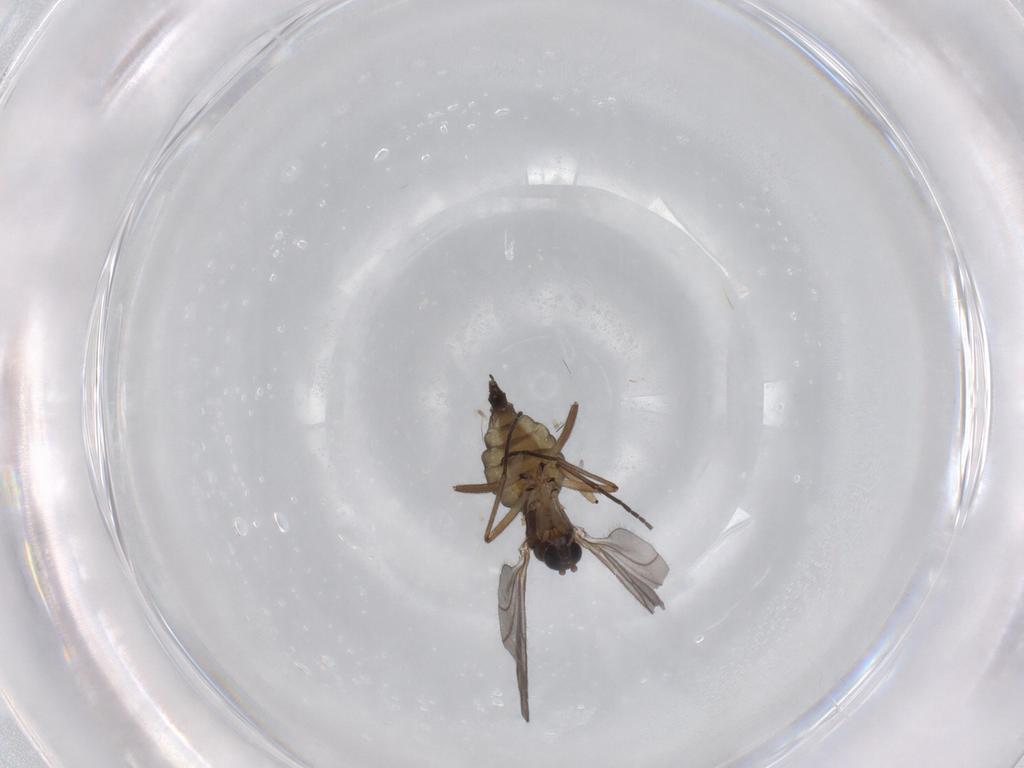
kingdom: Animalia
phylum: Arthropoda
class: Insecta
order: Diptera
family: Sciaridae
